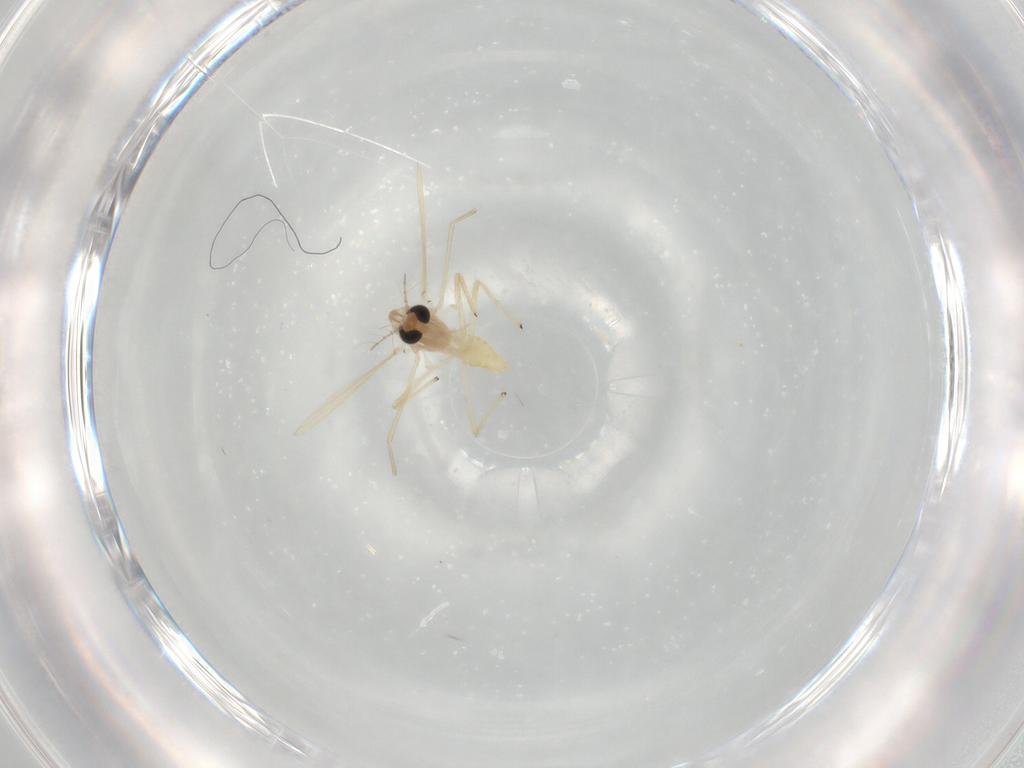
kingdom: Animalia
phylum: Arthropoda
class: Insecta
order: Diptera
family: Chironomidae
